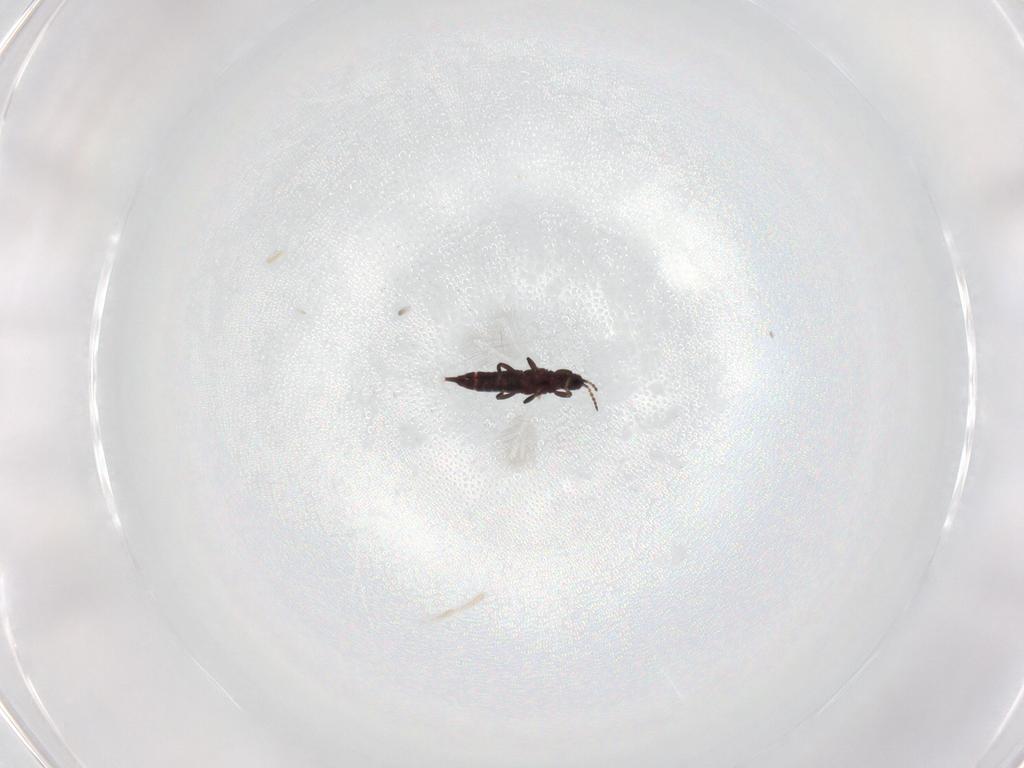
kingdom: Animalia
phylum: Arthropoda
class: Insecta
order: Thysanoptera
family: Phlaeothripidae
